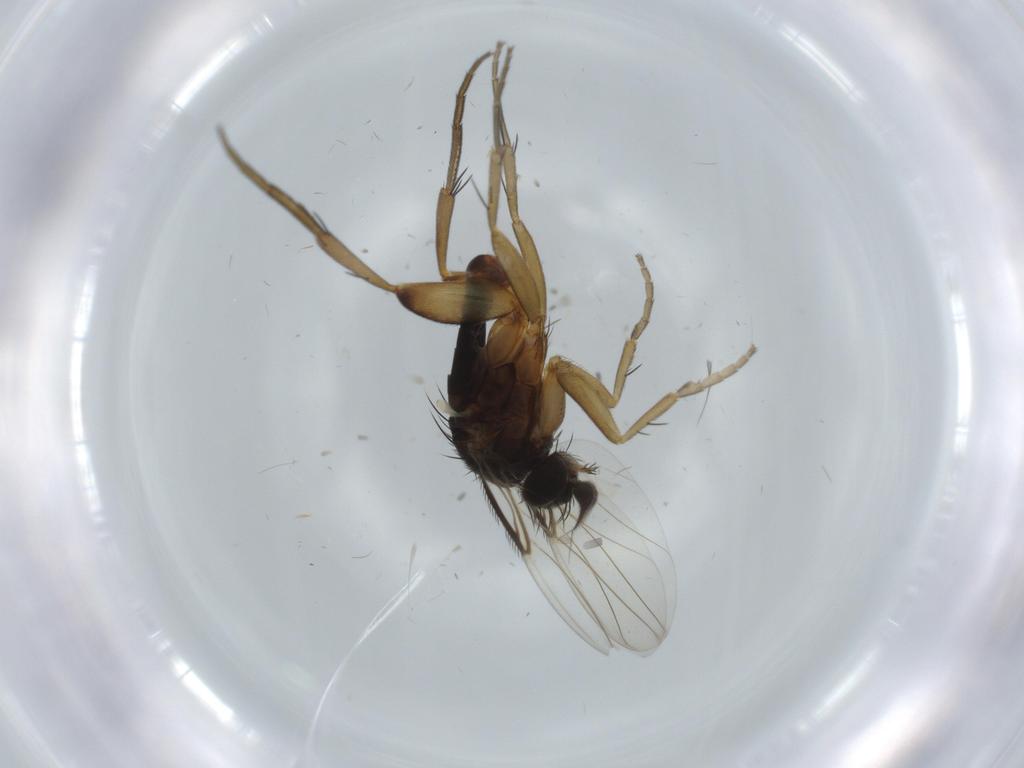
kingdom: Animalia
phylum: Arthropoda
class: Insecta
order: Diptera
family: Phoridae
